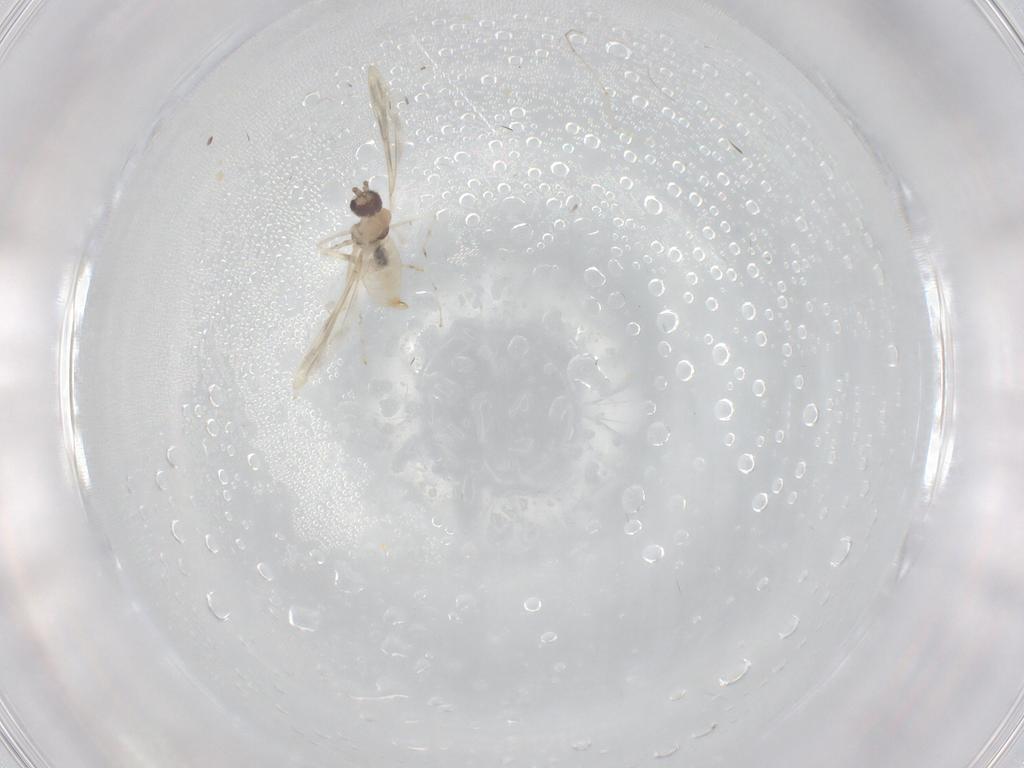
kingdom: Animalia
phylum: Arthropoda
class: Insecta
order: Diptera
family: Cecidomyiidae
